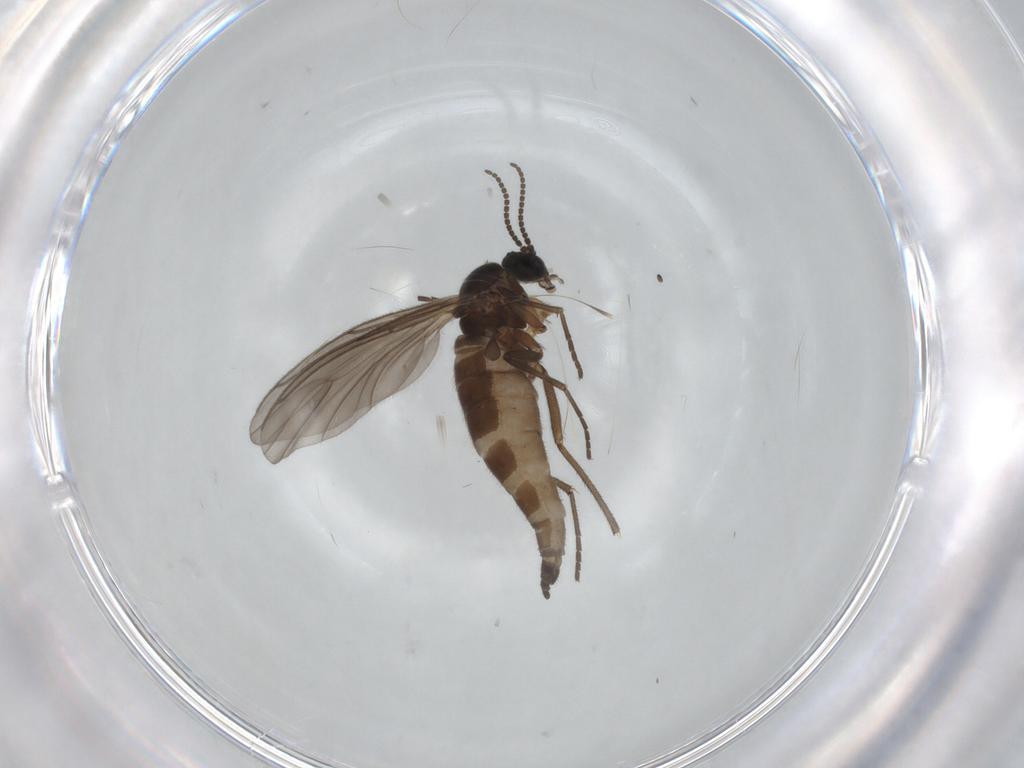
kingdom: Animalia
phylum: Arthropoda
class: Insecta
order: Diptera
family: Sciaridae
